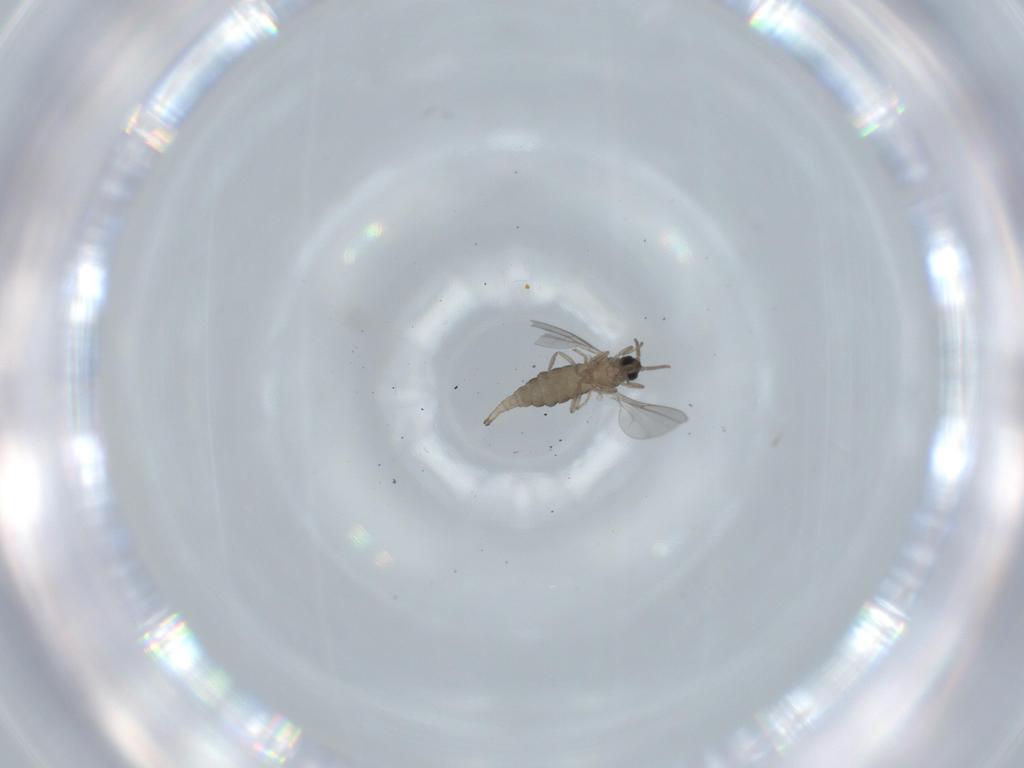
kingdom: Animalia
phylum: Arthropoda
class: Insecta
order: Diptera
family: Cecidomyiidae
